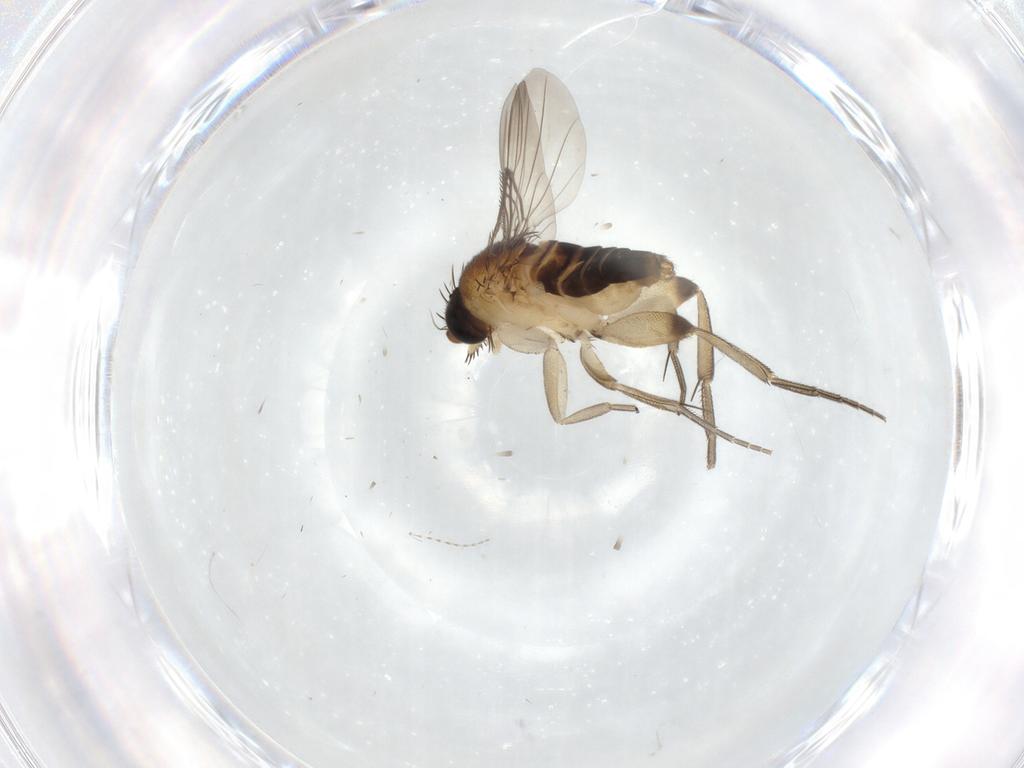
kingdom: Animalia
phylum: Arthropoda
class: Insecta
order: Diptera
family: Phoridae
